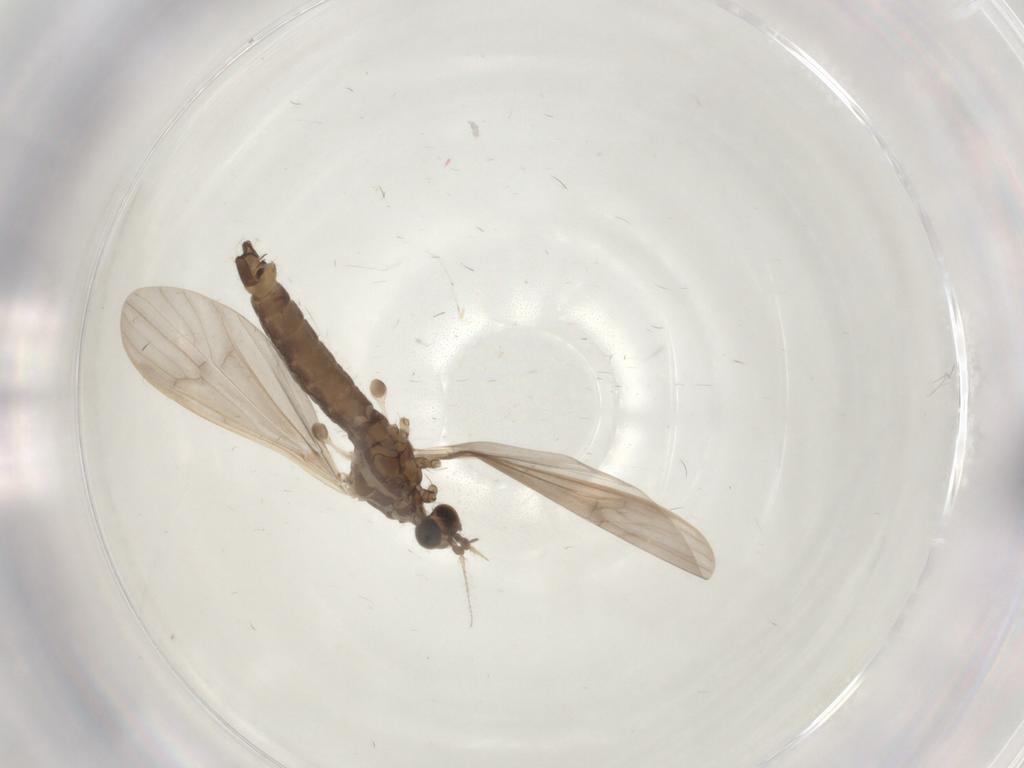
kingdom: Animalia
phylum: Arthropoda
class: Insecta
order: Diptera
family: Limoniidae
